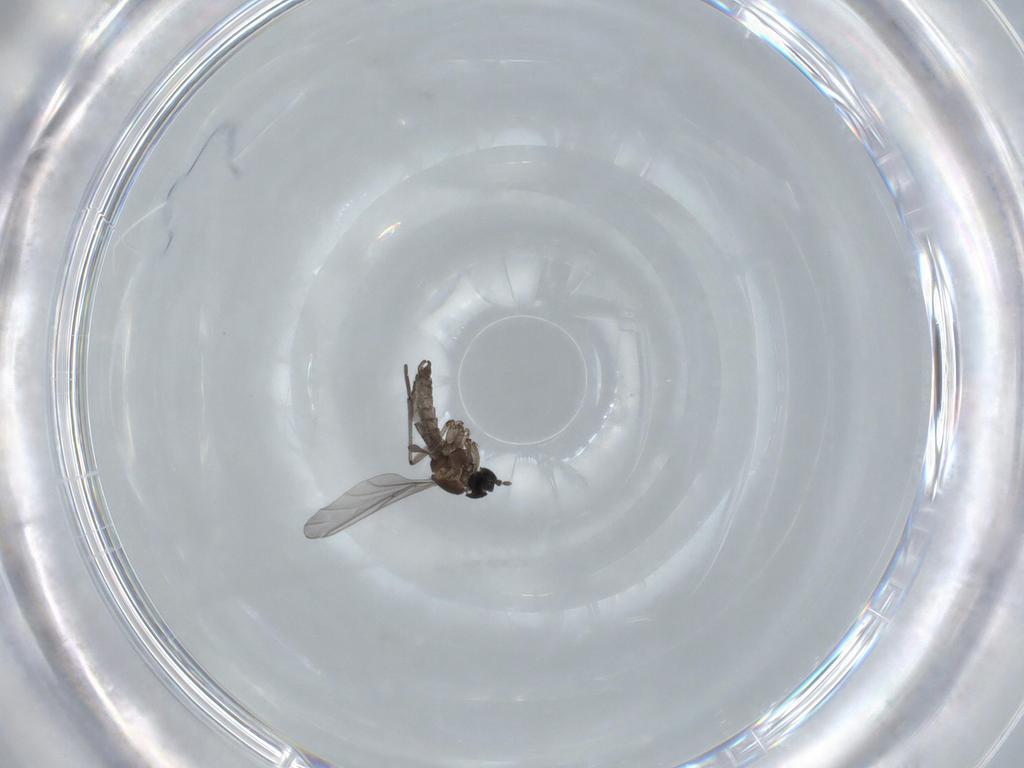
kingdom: Animalia
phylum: Arthropoda
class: Insecta
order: Diptera
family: Sciaridae
